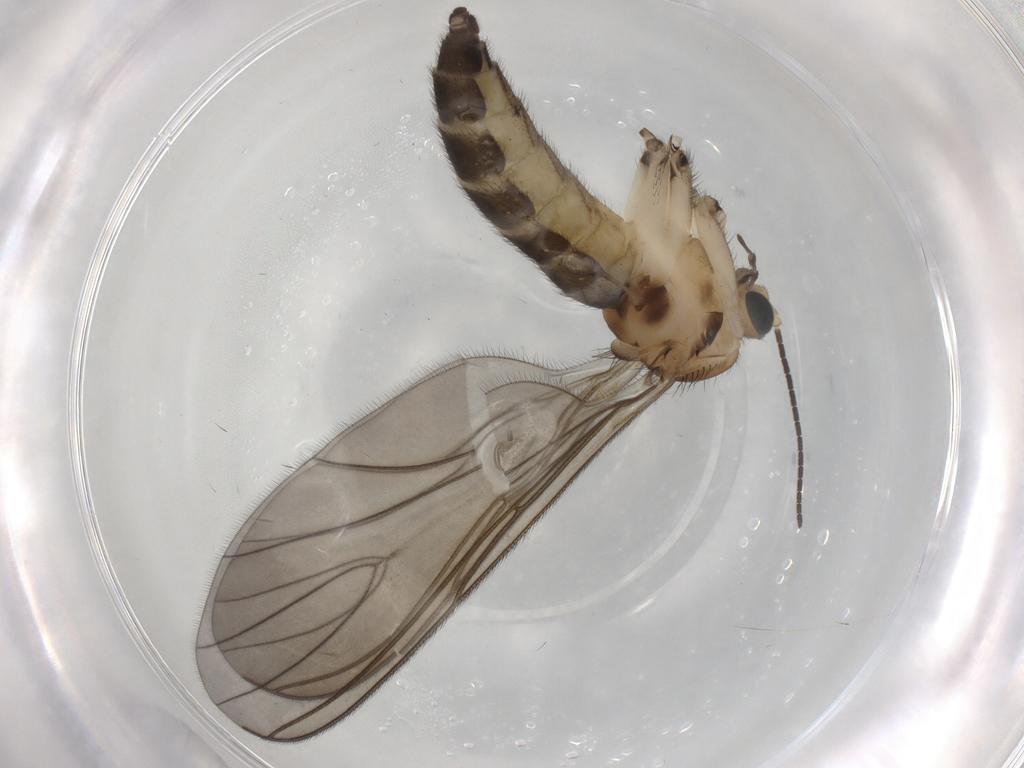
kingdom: Animalia
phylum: Arthropoda
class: Insecta
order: Diptera
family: Sciaridae
